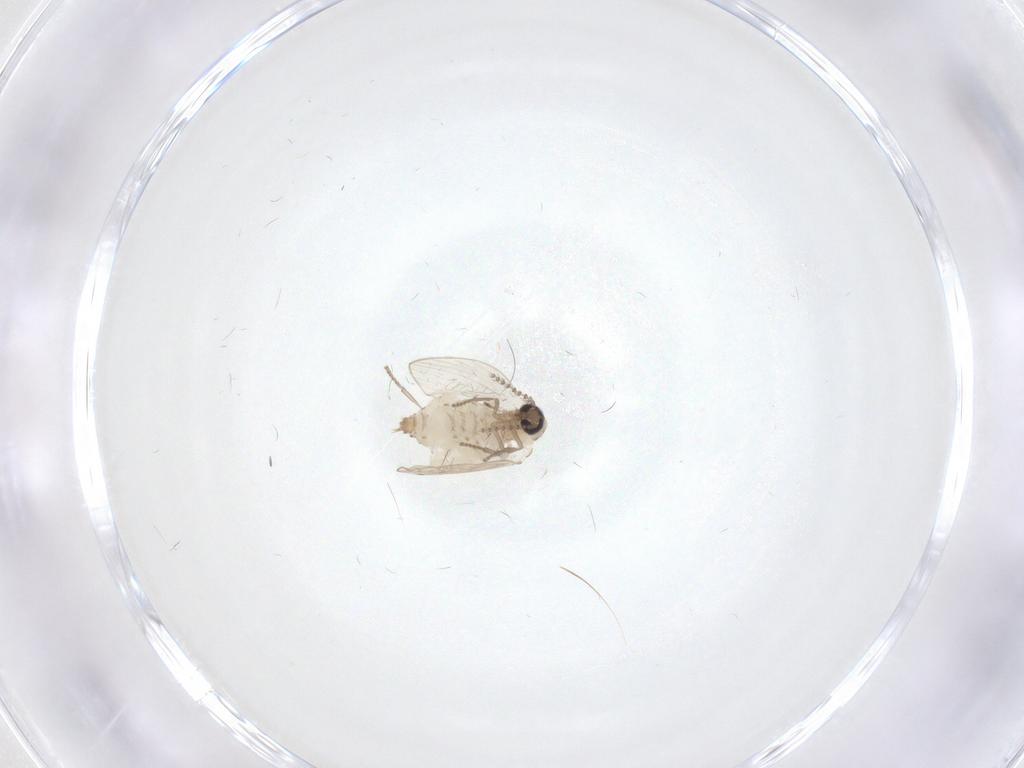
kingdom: Animalia
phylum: Arthropoda
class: Insecta
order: Diptera
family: Psychodidae
